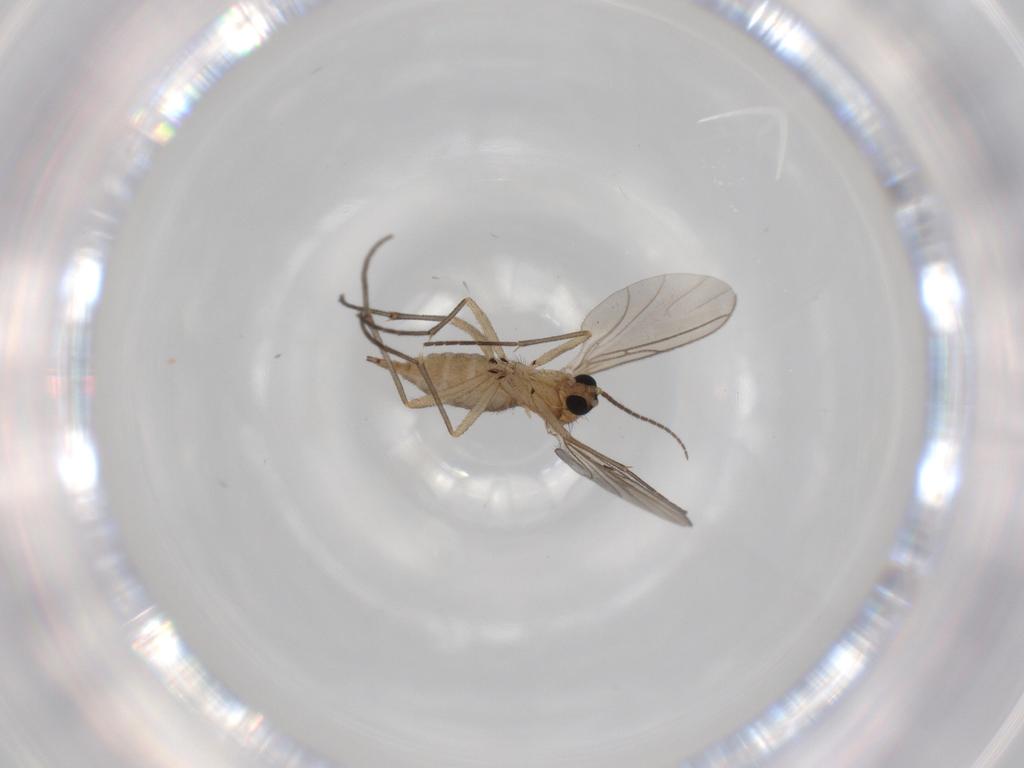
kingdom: Animalia
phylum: Arthropoda
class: Insecta
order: Diptera
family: Sciaridae
